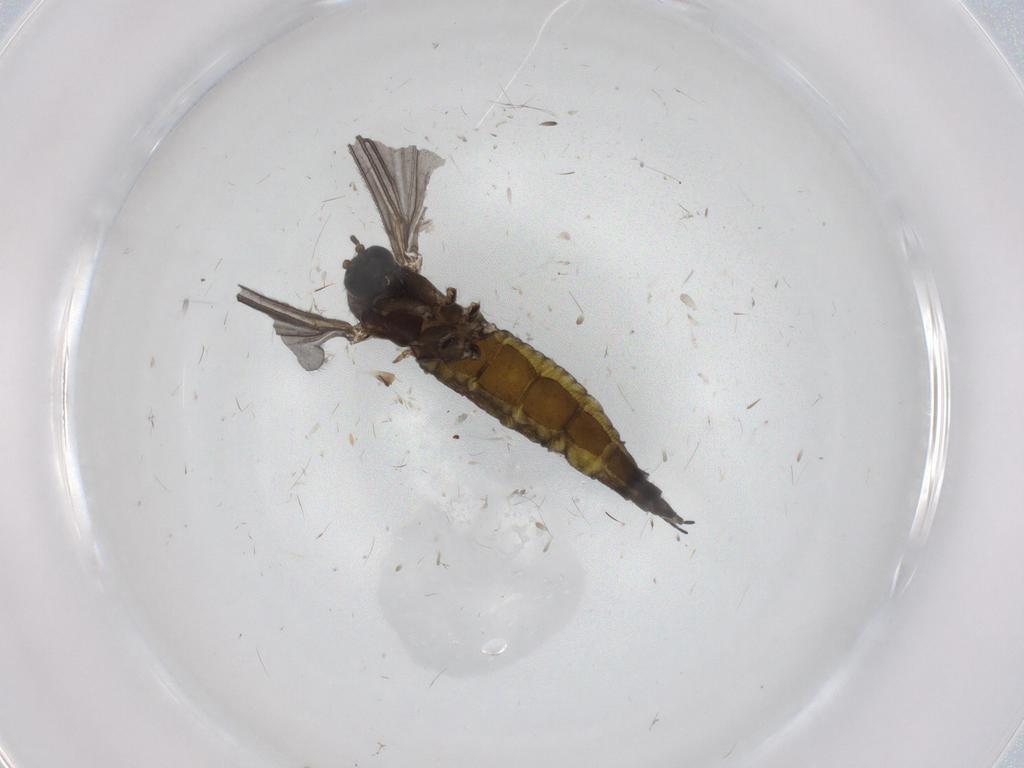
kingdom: Animalia
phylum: Arthropoda
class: Insecta
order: Diptera
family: Sciaridae
